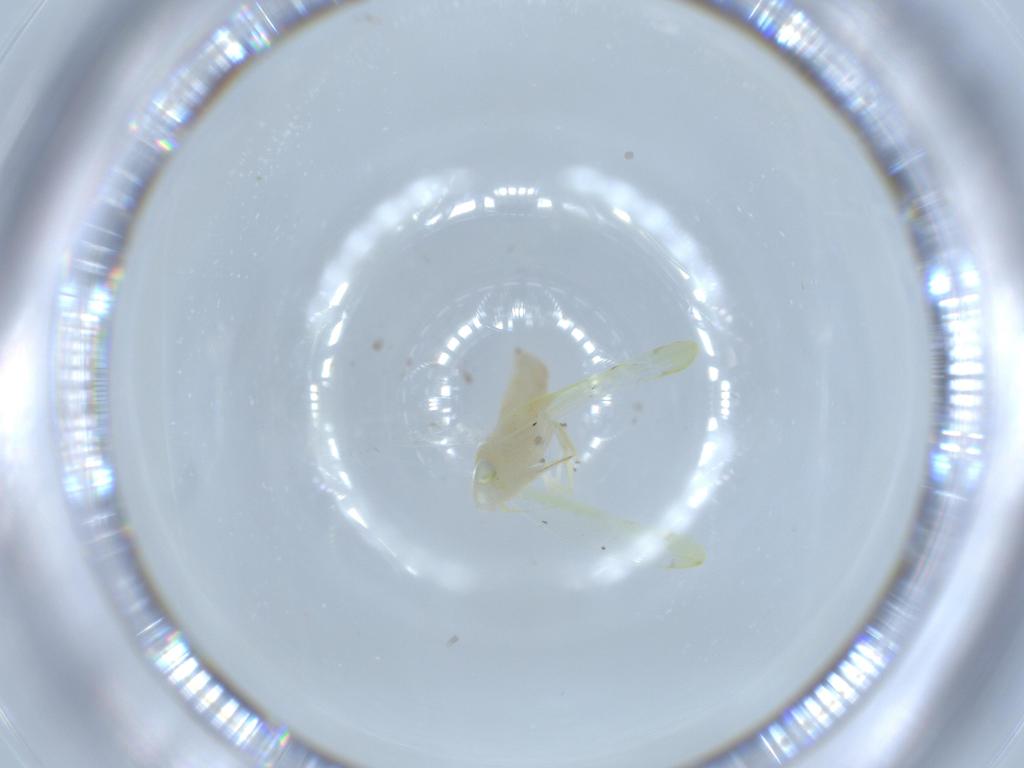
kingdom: Animalia
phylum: Arthropoda
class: Insecta
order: Hemiptera
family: Cicadellidae
